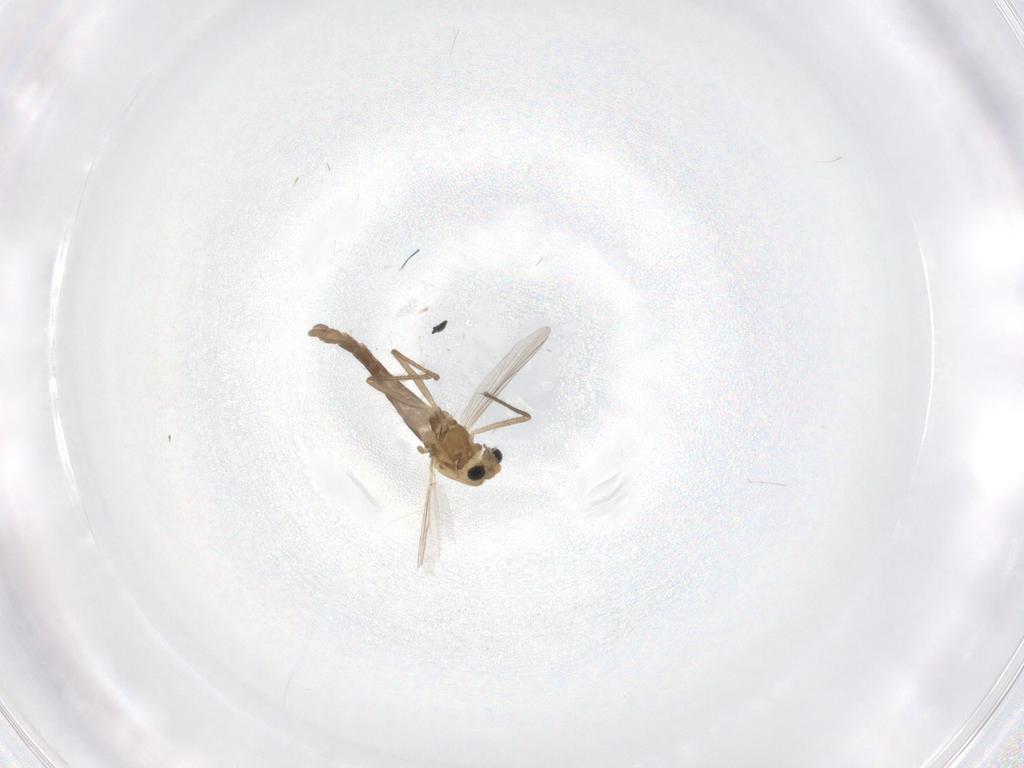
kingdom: Animalia
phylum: Arthropoda
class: Insecta
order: Diptera
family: Chironomidae
